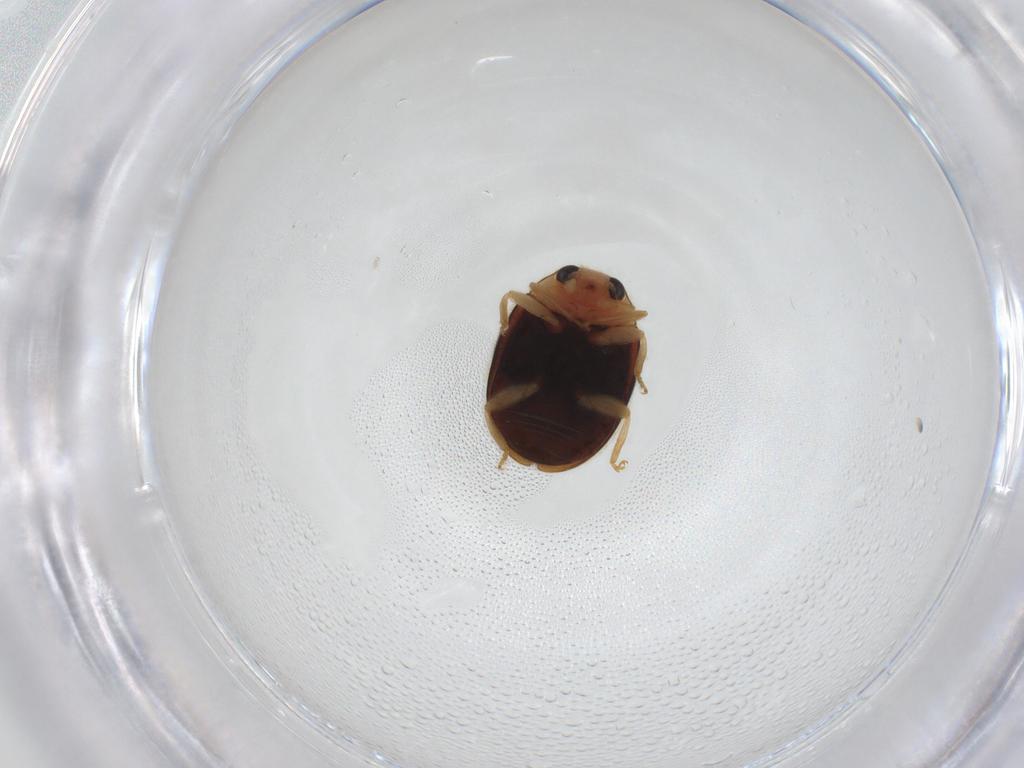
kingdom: Animalia
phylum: Arthropoda
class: Insecta
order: Coleoptera
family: Coccinellidae
